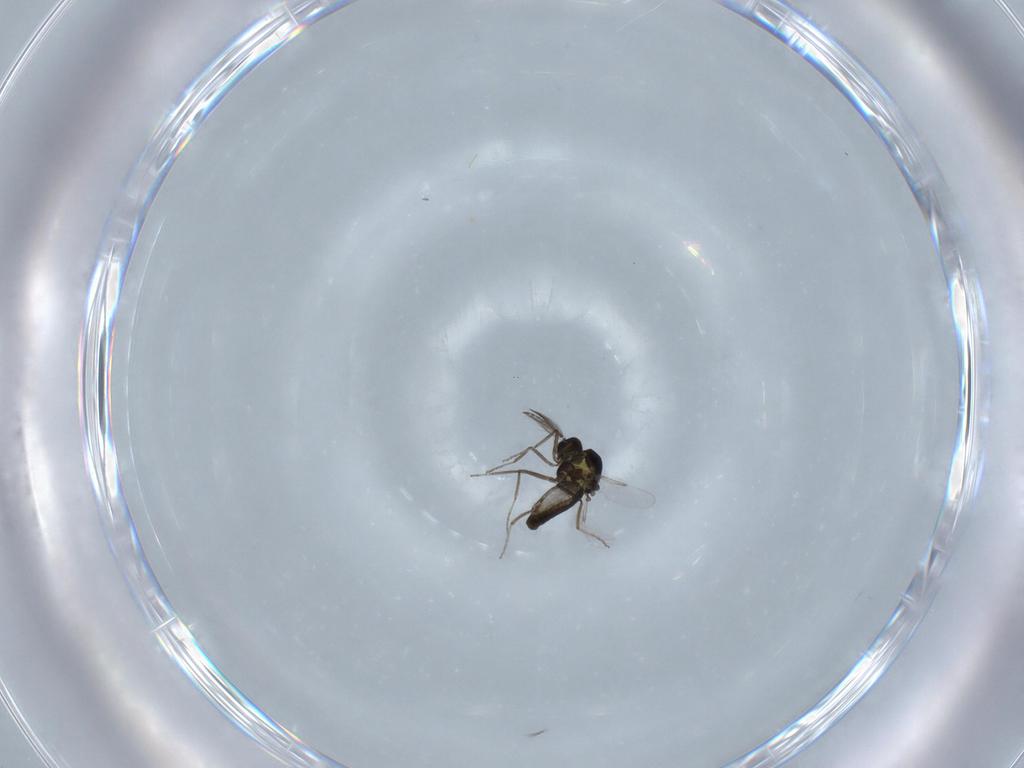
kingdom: Animalia
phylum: Arthropoda
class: Insecta
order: Diptera
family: Ceratopogonidae
